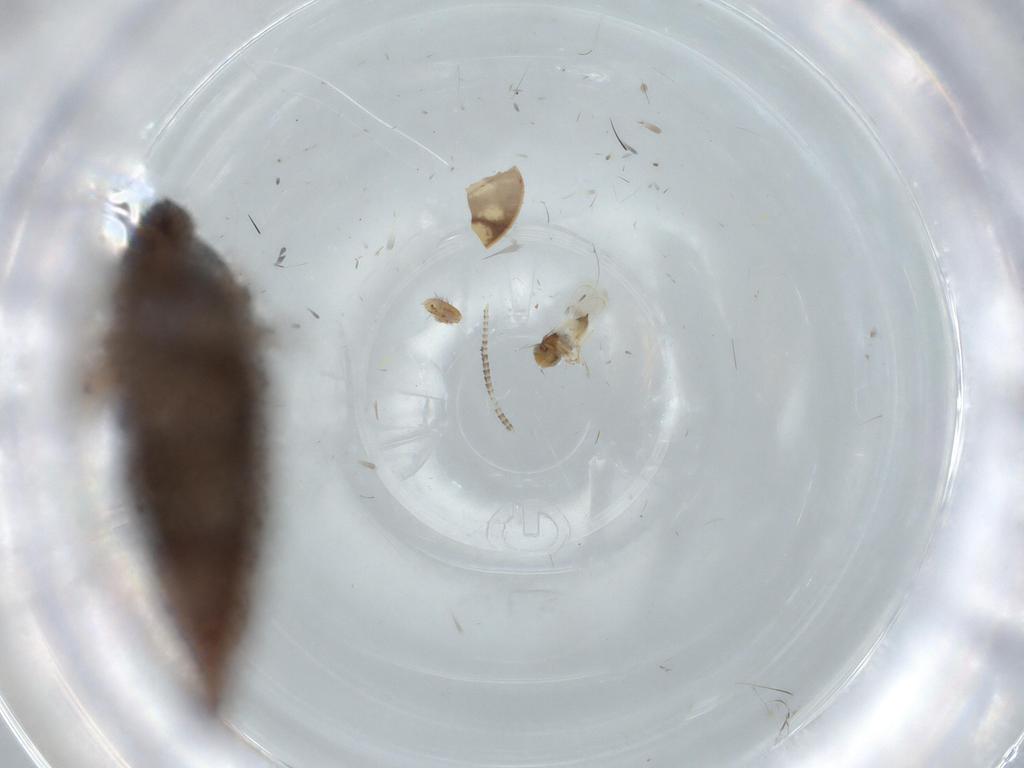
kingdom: Animalia
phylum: Arthropoda
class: Insecta
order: Hemiptera
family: Cicadellidae
